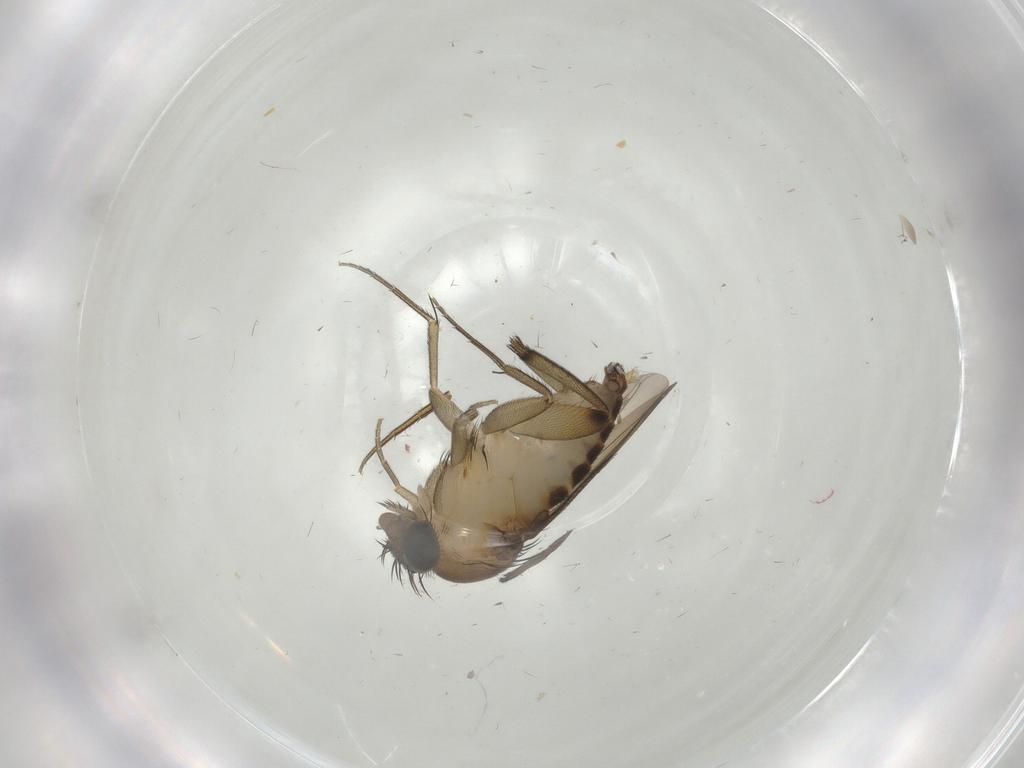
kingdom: Animalia
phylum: Arthropoda
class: Insecta
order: Diptera
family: Phoridae
